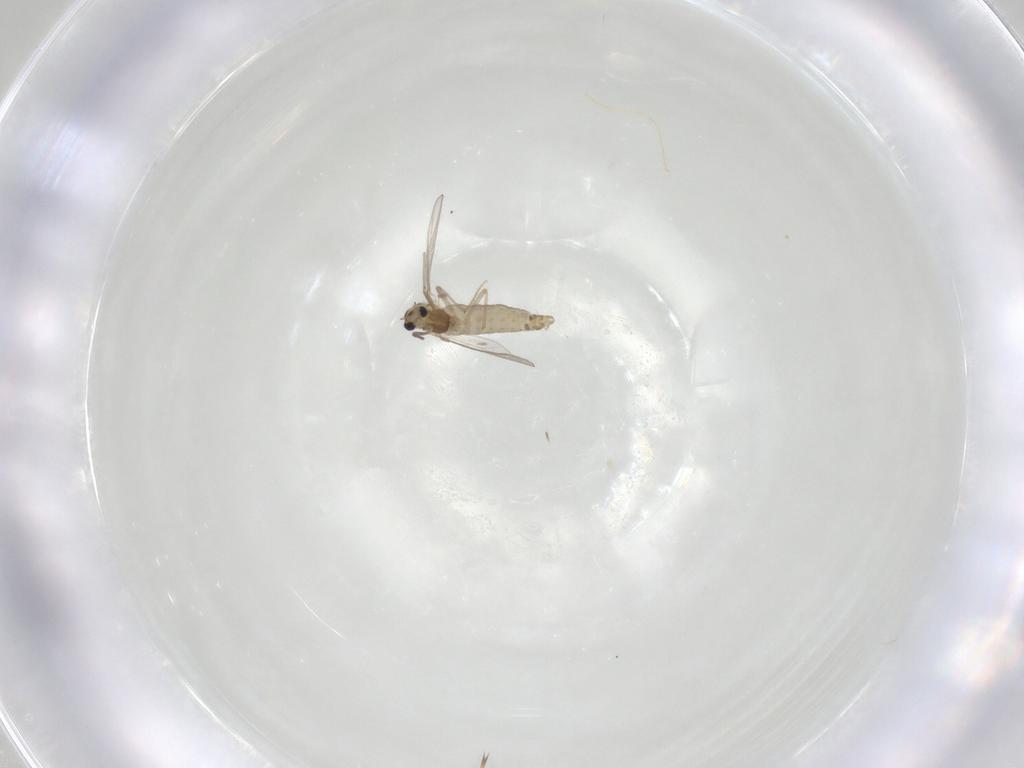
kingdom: Animalia
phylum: Arthropoda
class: Insecta
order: Diptera
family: Chironomidae
